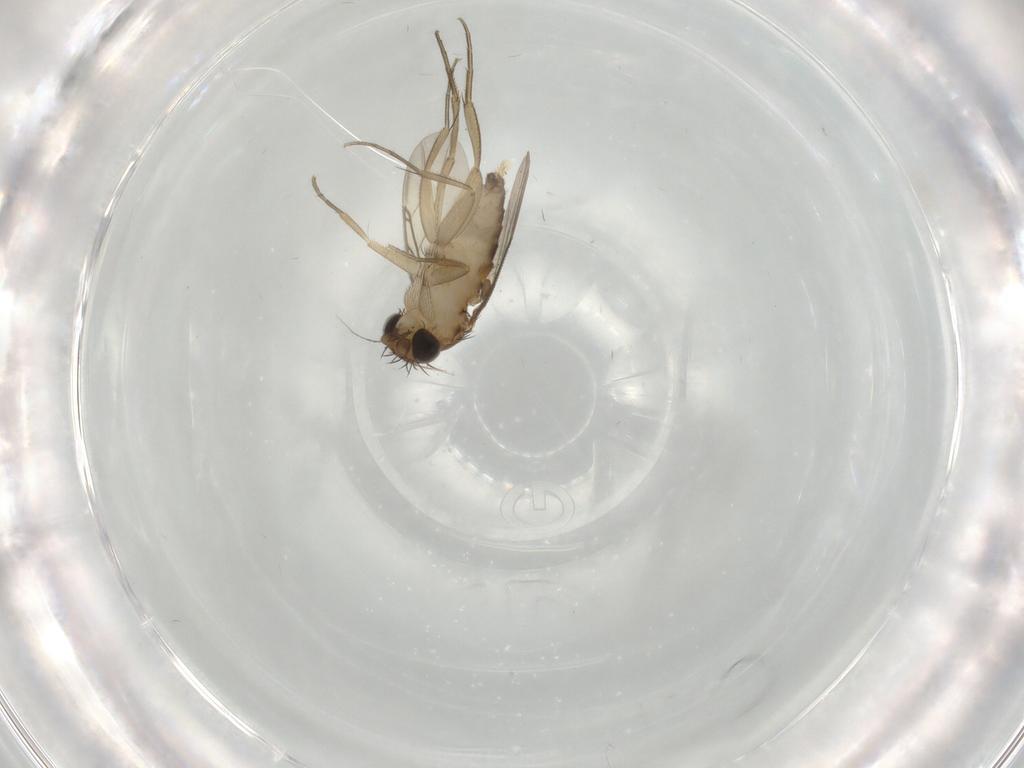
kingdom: Animalia
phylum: Arthropoda
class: Insecta
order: Diptera
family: Phoridae
